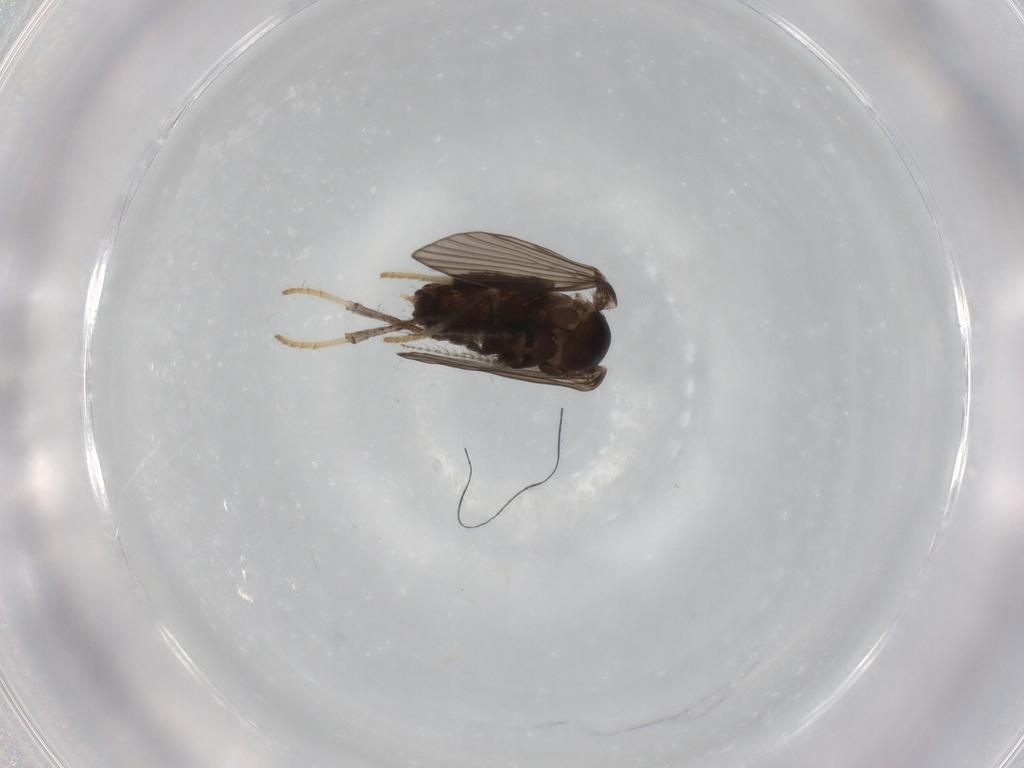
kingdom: Animalia
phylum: Arthropoda
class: Insecta
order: Diptera
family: Psychodidae
